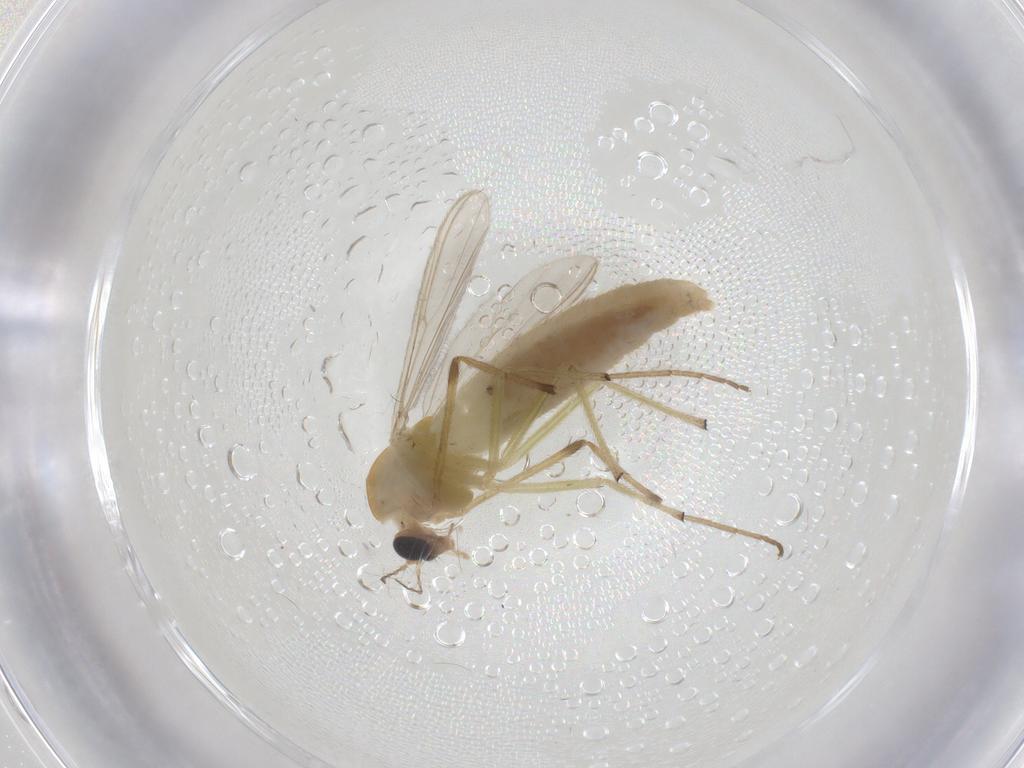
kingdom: Animalia
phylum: Arthropoda
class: Insecta
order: Diptera
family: Chironomidae
